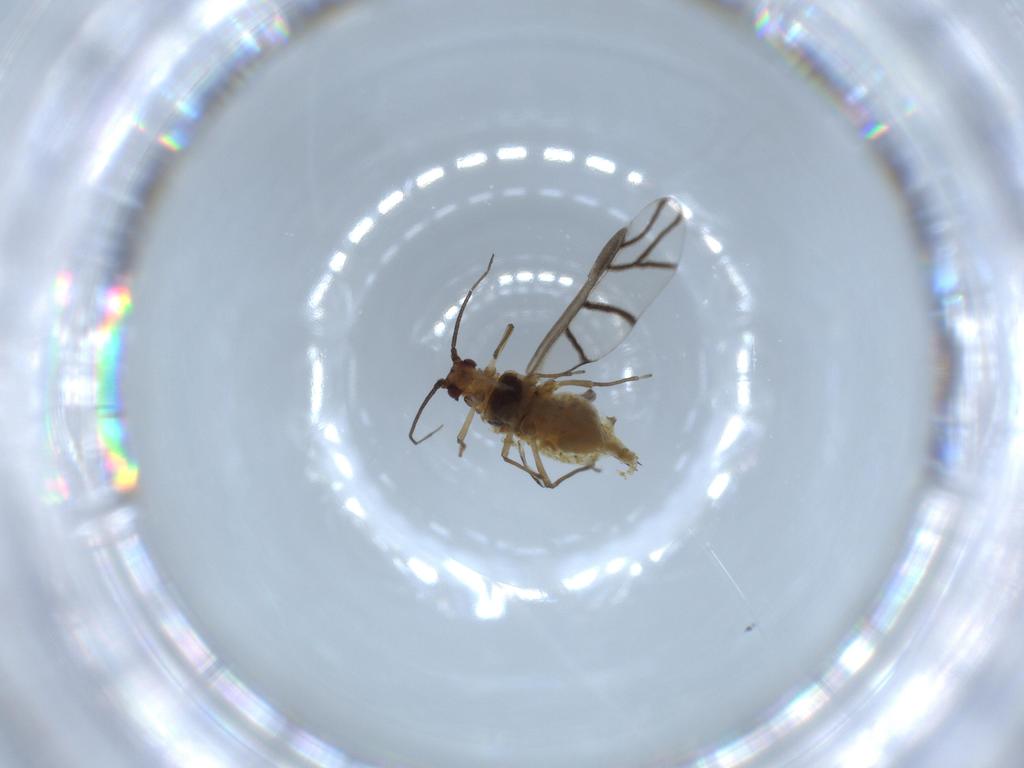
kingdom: Animalia
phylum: Arthropoda
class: Insecta
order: Hemiptera
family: Aphididae
